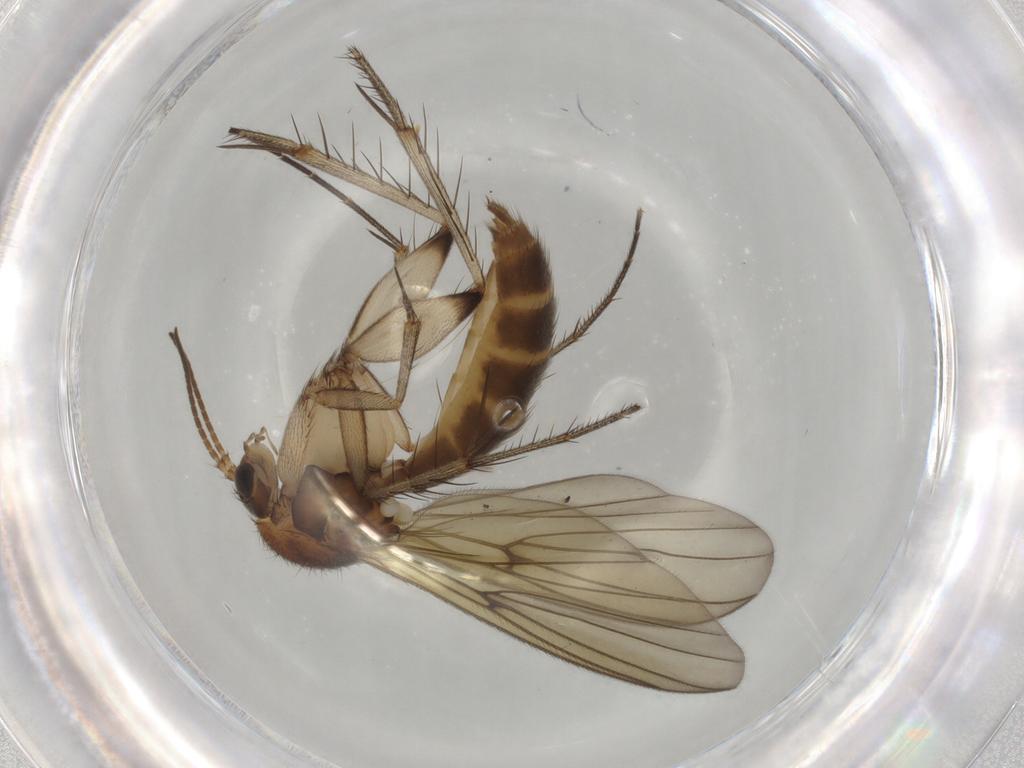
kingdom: Animalia
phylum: Arthropoda
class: Insecta
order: Diptera
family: Mycetophilidae
